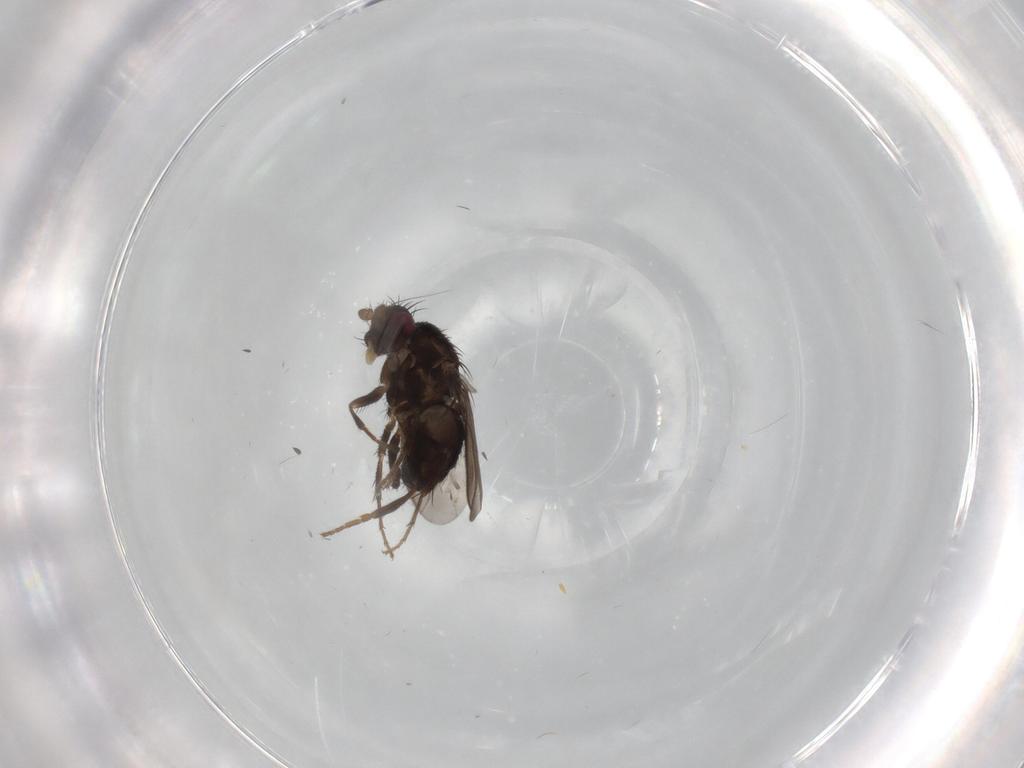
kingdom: Animalia
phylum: Arthropoda
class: Insecta
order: Diptera
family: Sphaeroceridae
